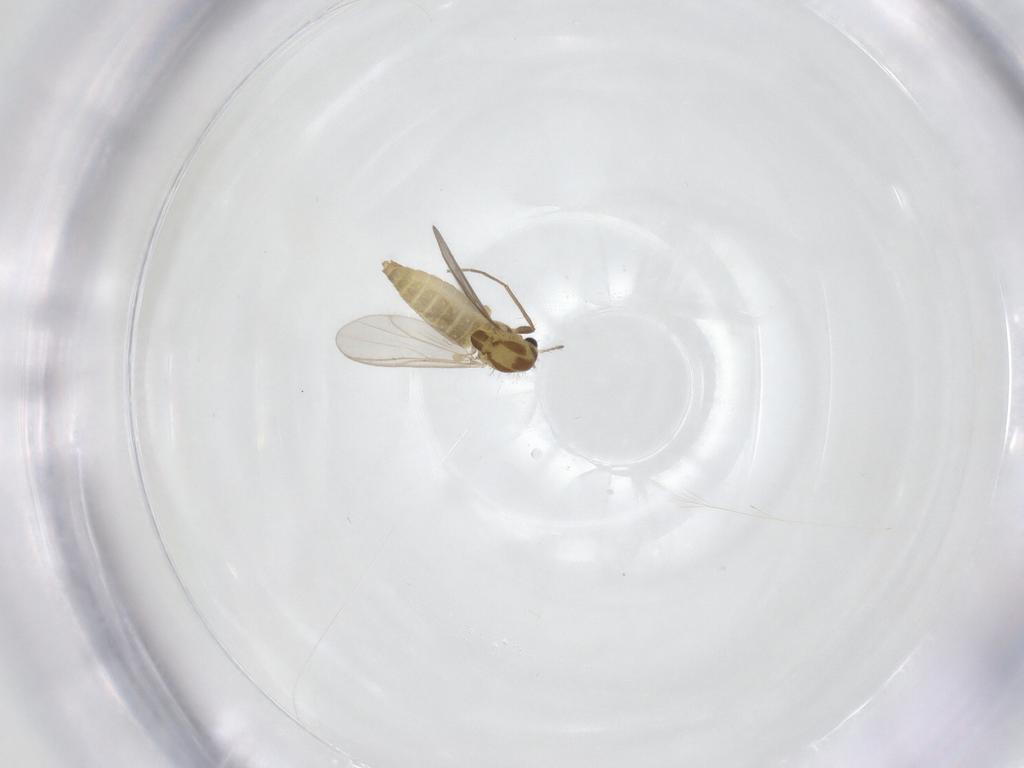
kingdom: Animalia
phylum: Arthropoda
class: Insecta
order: Diptera
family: Chironomidae
